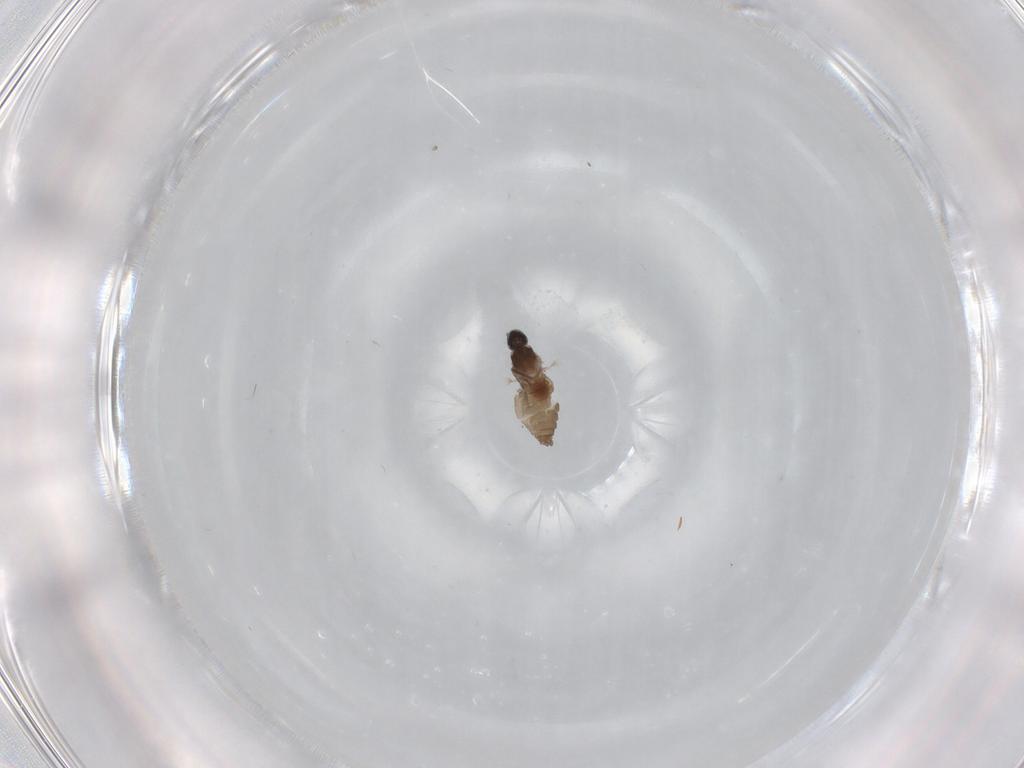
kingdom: Animalia
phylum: Arthropoda
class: Insecta
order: Diptera
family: Cecidomyiidae
